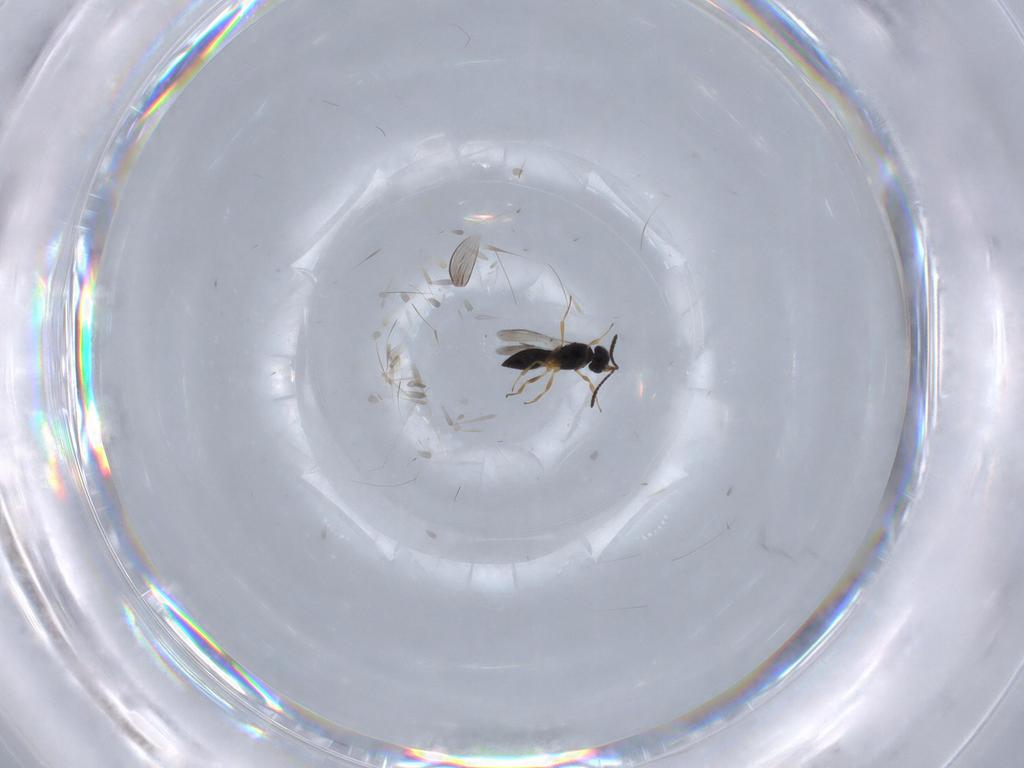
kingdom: Animalia
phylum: Arthropoda
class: Insecta
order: Hymenoptera
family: Scelionidae
